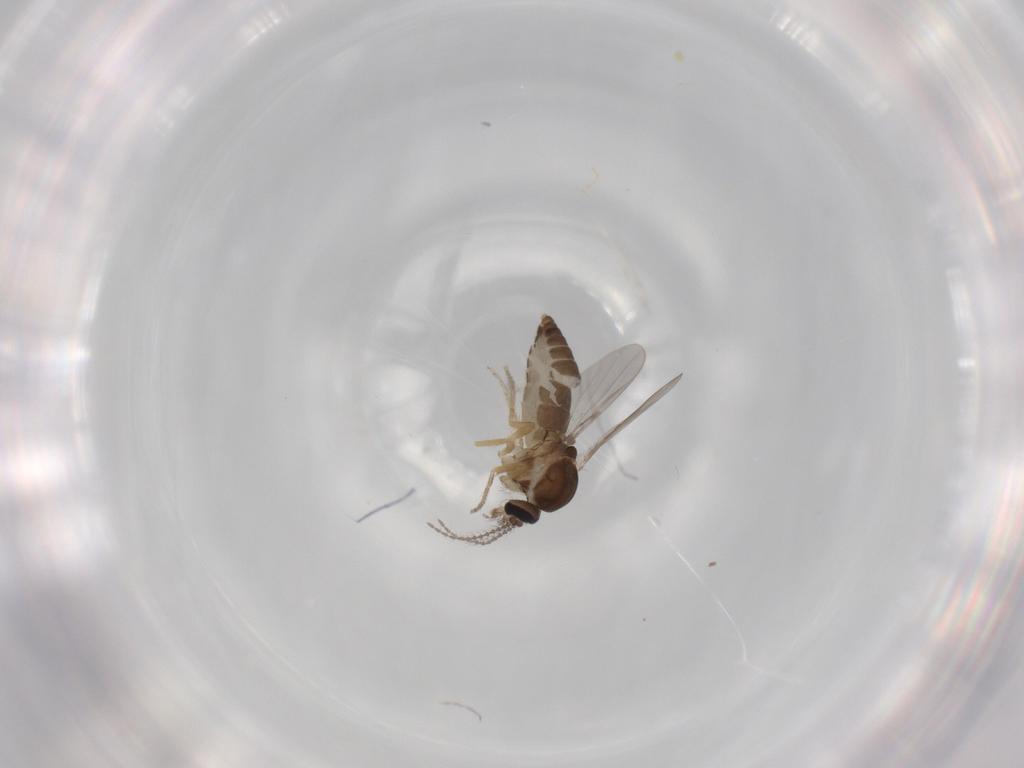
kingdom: Animalia
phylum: Arthropoda
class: Insecta
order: Diptera
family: Ceratopogonidae
